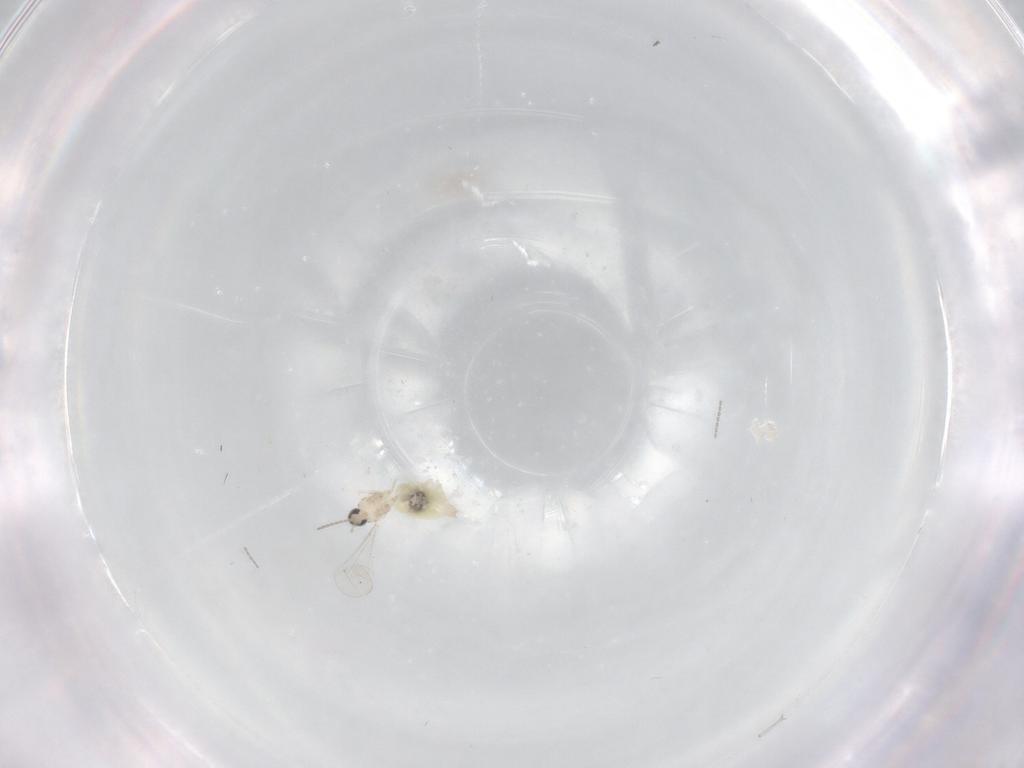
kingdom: Animalia
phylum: Arthropoda
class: Insecta
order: Diptera
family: Cecidomyiidae
